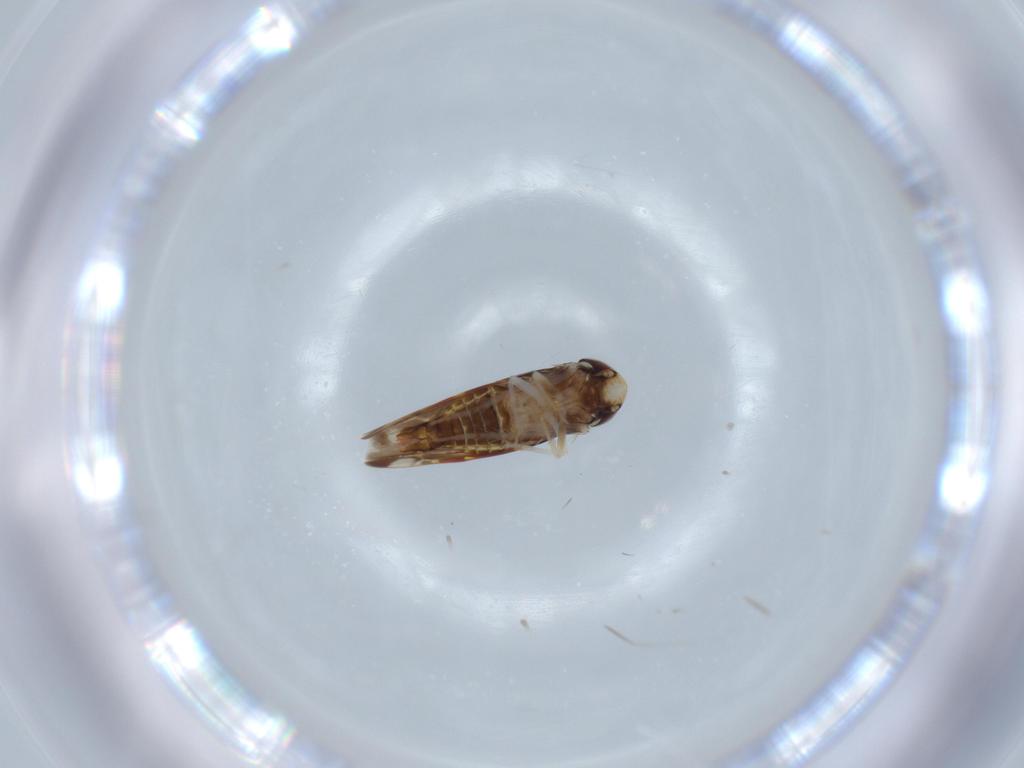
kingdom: Animalia
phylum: Arthropoda
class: Insecta
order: Hemiptera
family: Cicadellidae
